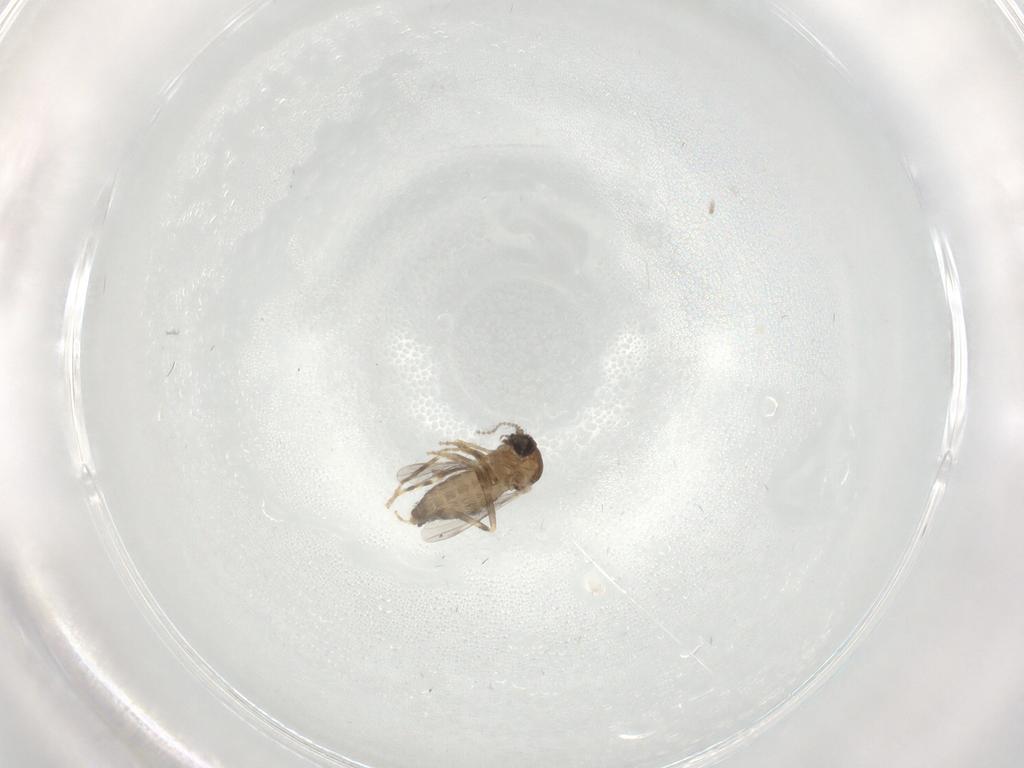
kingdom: Animalia
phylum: Arthropoda
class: Insecta
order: Diptera
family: Ceratopogonidae
